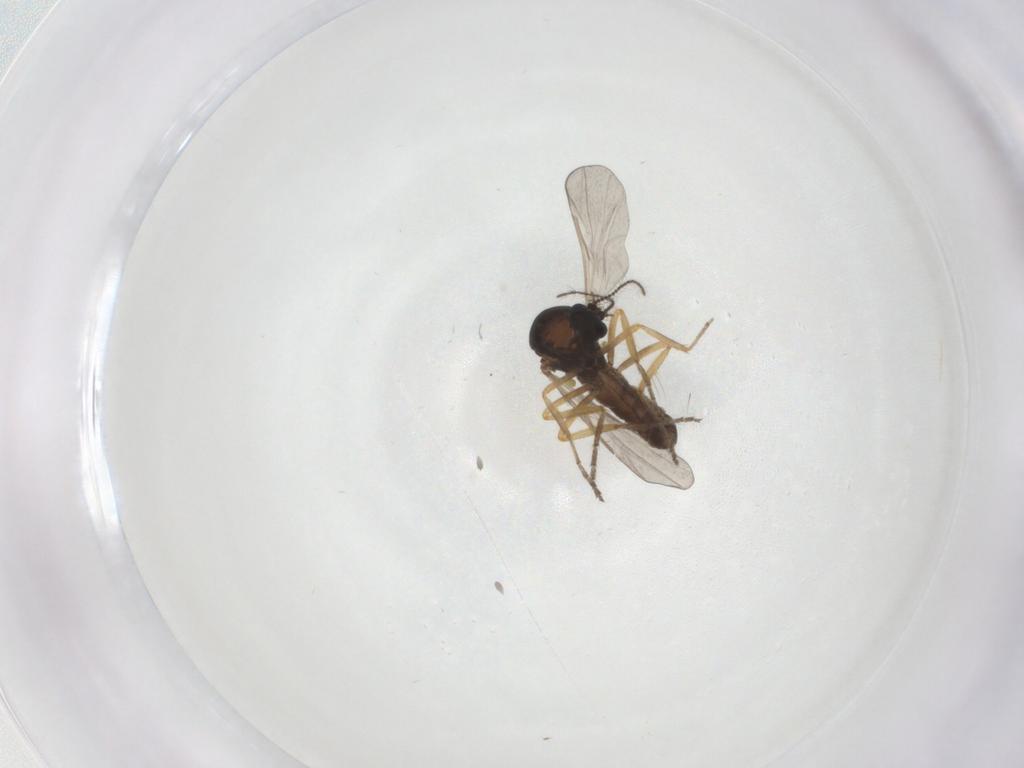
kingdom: Animalia
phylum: Arthropoda
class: Insecta
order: Diptera
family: Ceratopogonidae
